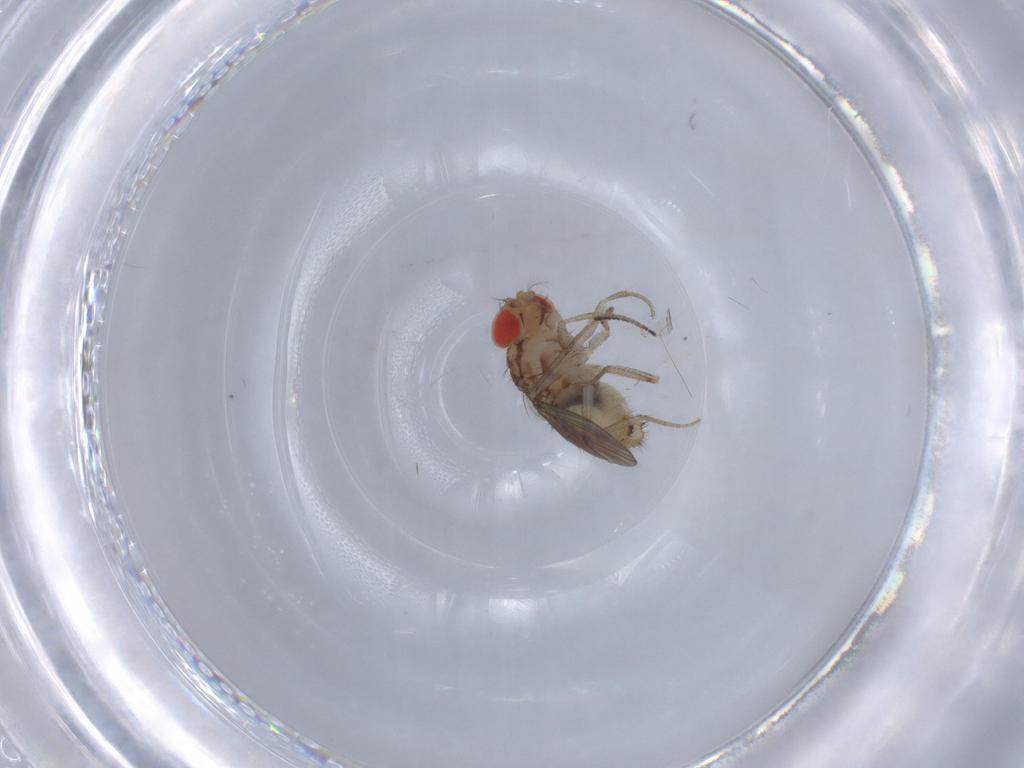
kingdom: Animalia
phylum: Arthropoda
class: Insecta
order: Diptera
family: Drosophilidae
